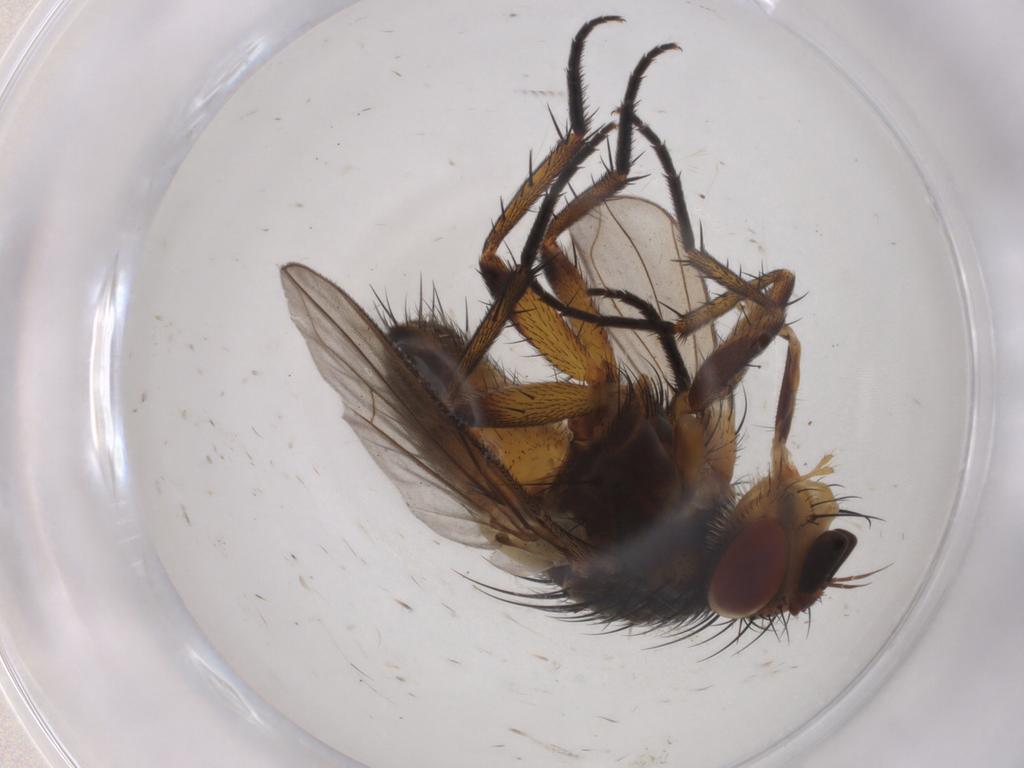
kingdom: Animalia
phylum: Arthropoda
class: Insecta
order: Diptera
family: Tachinidae
